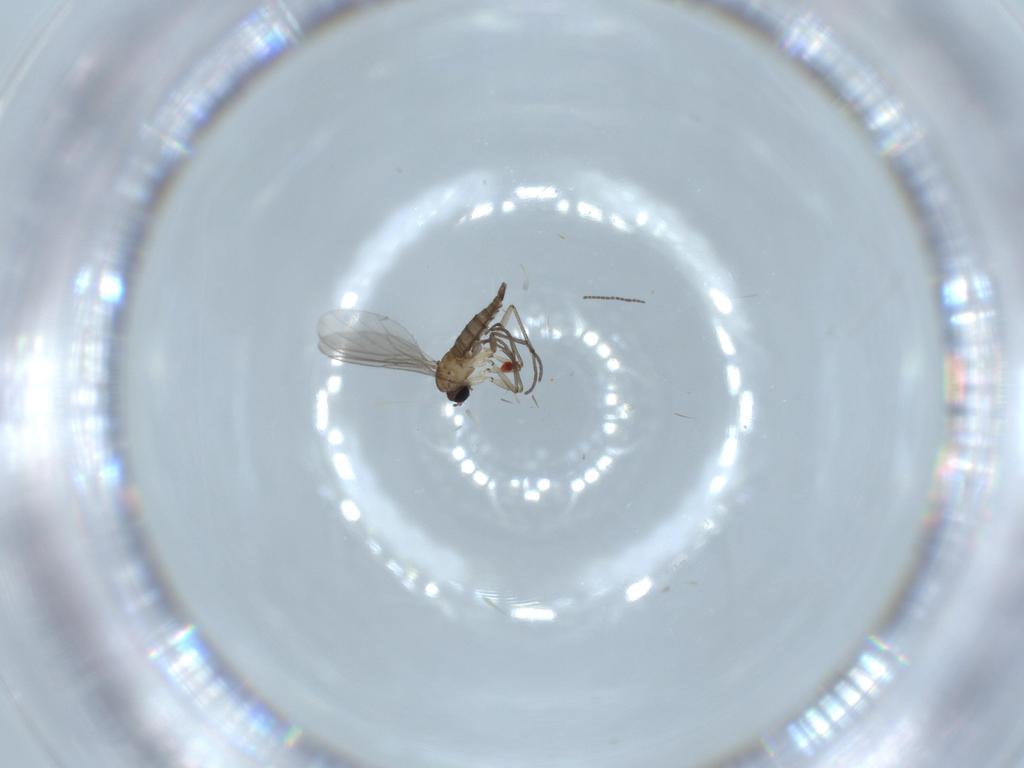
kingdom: Animalia
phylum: Arthropoda
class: Insecta
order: Diptera
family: Sciaridae
